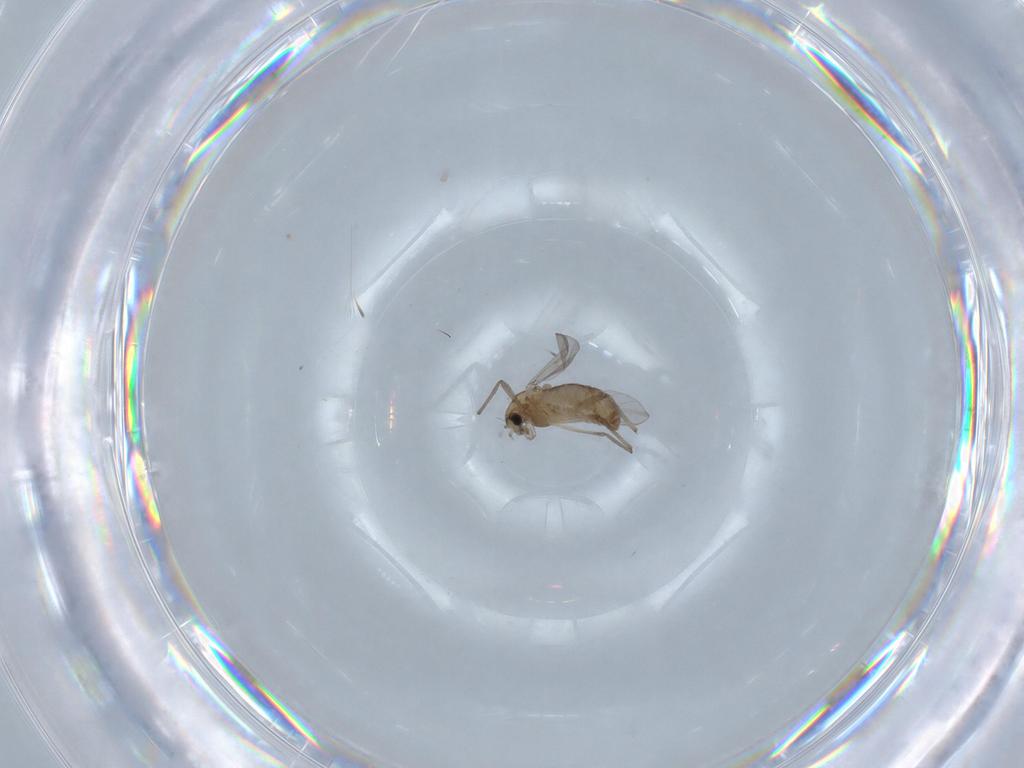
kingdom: Animalia
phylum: Arthropoda
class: Insecta
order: Diptera
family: Chironomidae
